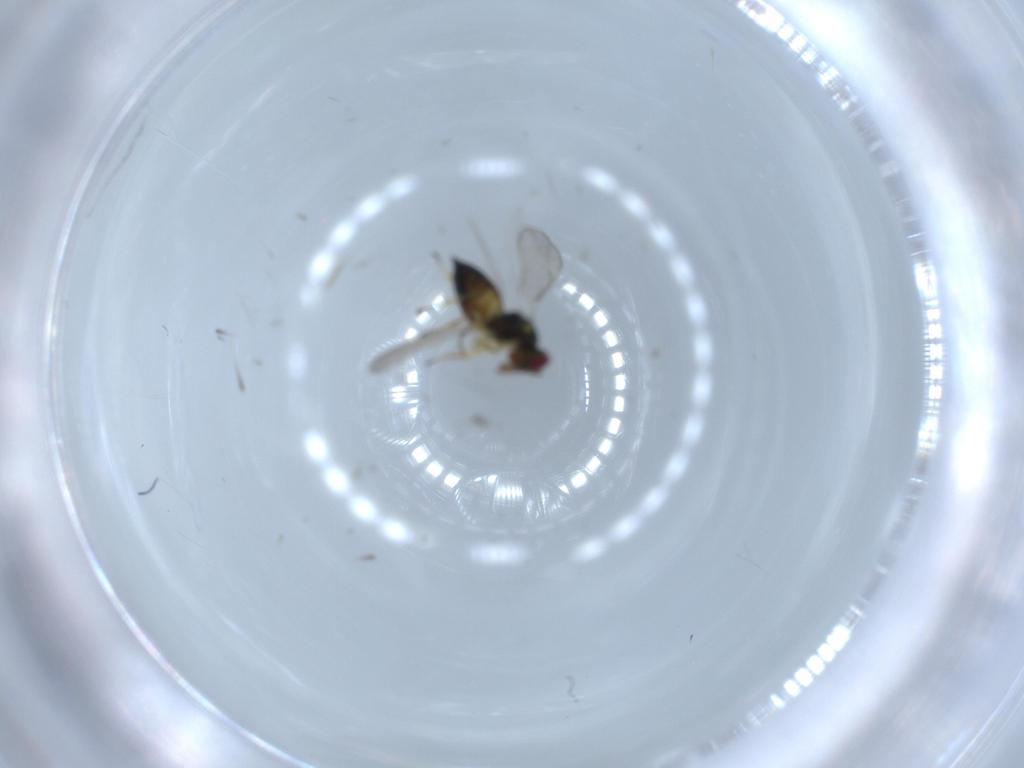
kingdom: Animalia
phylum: Arthropoda
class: Insecta
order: Hymenoptera
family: Eulophidae
